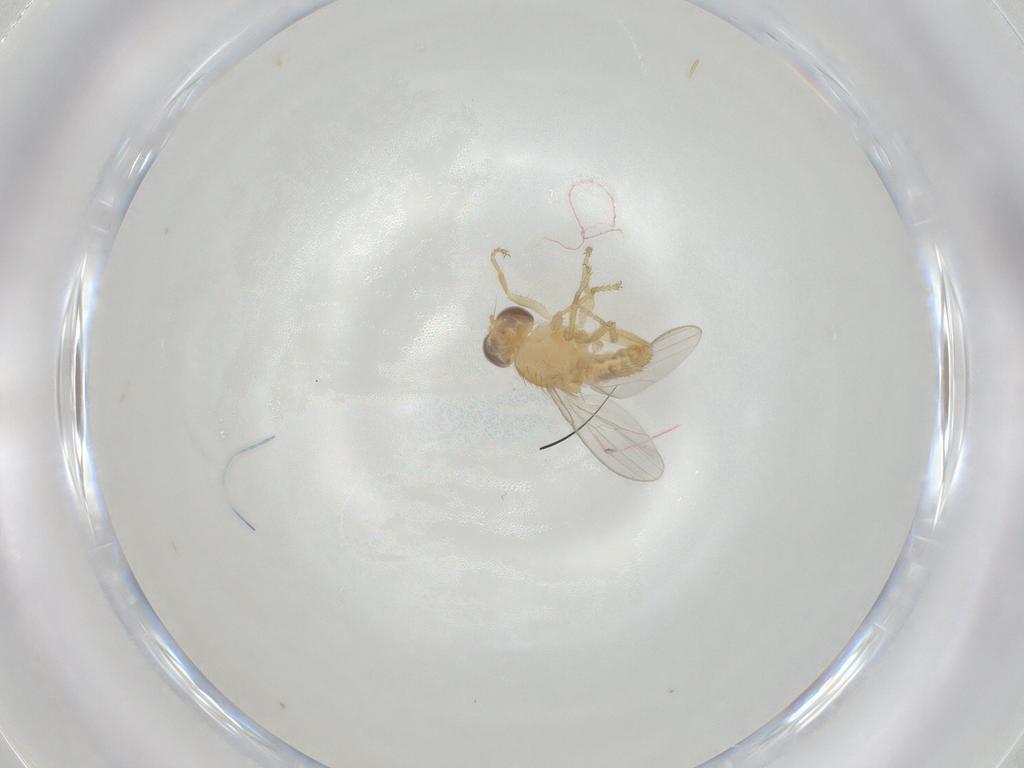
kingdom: Animalia
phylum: Arthropoda
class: Insecta
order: Diptera
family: Chyromyidae
